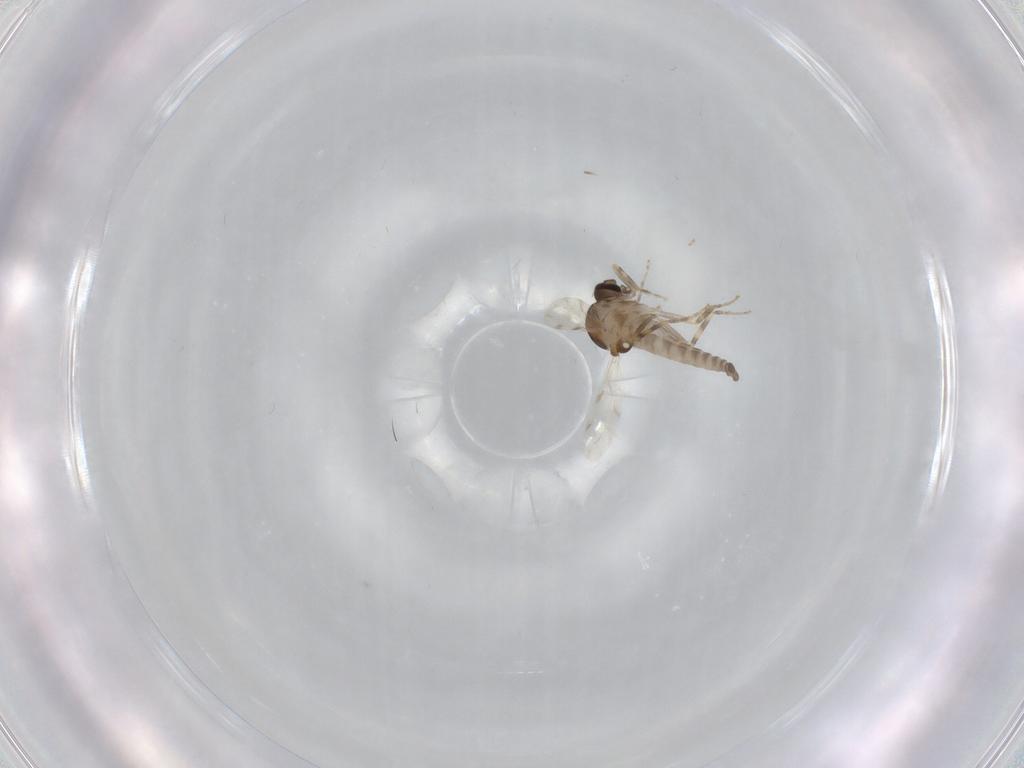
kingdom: Animalia
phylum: Arthropoda
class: Insecta
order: Diptera
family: Ceratopogonidae
